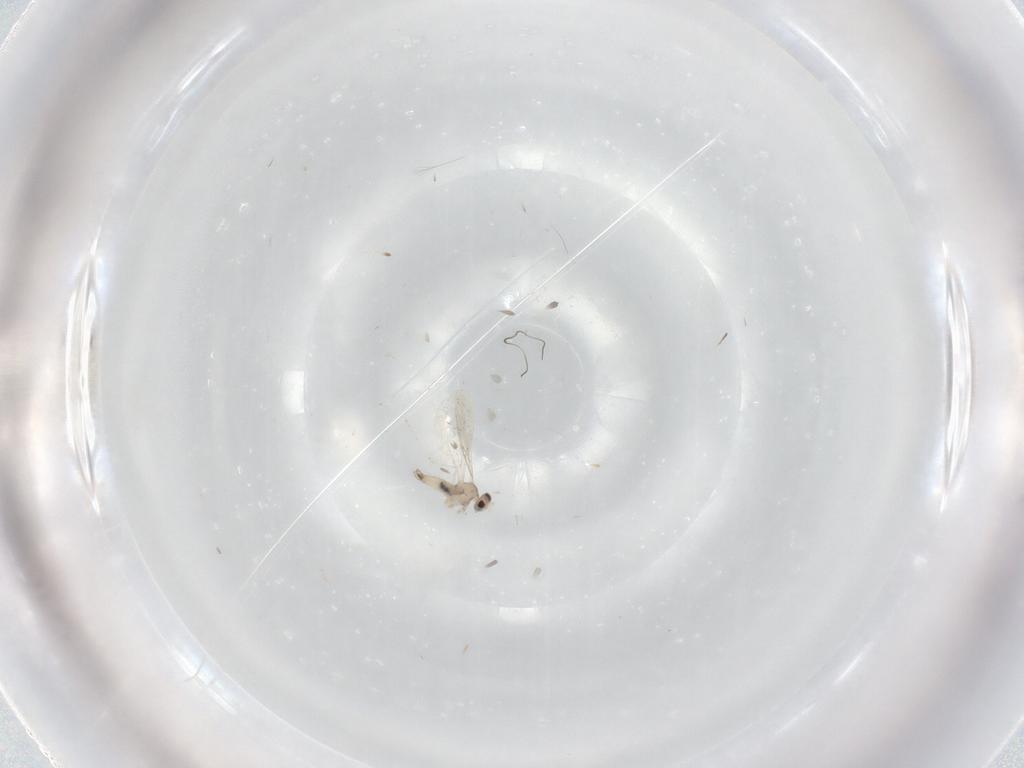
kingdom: Animalia
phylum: Arthropoda
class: Insecta
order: Diptera
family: Cecidomyiidae
